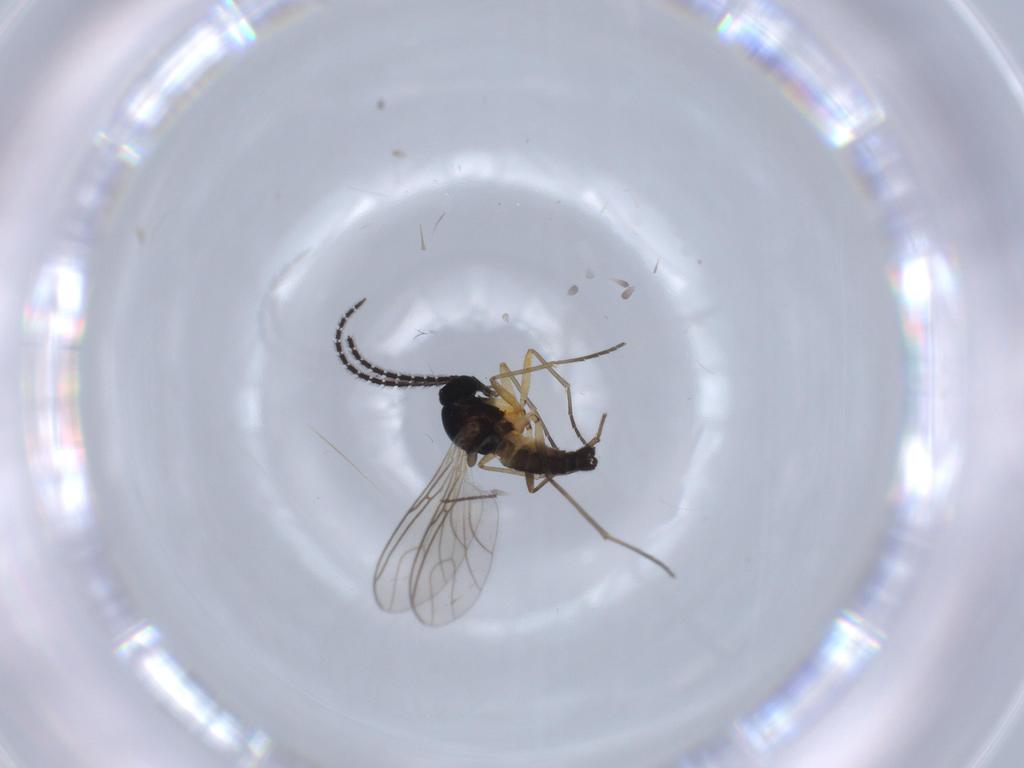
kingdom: Animalia
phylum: Arthropoda
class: Insecta
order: Diptera
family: Sciaridae
